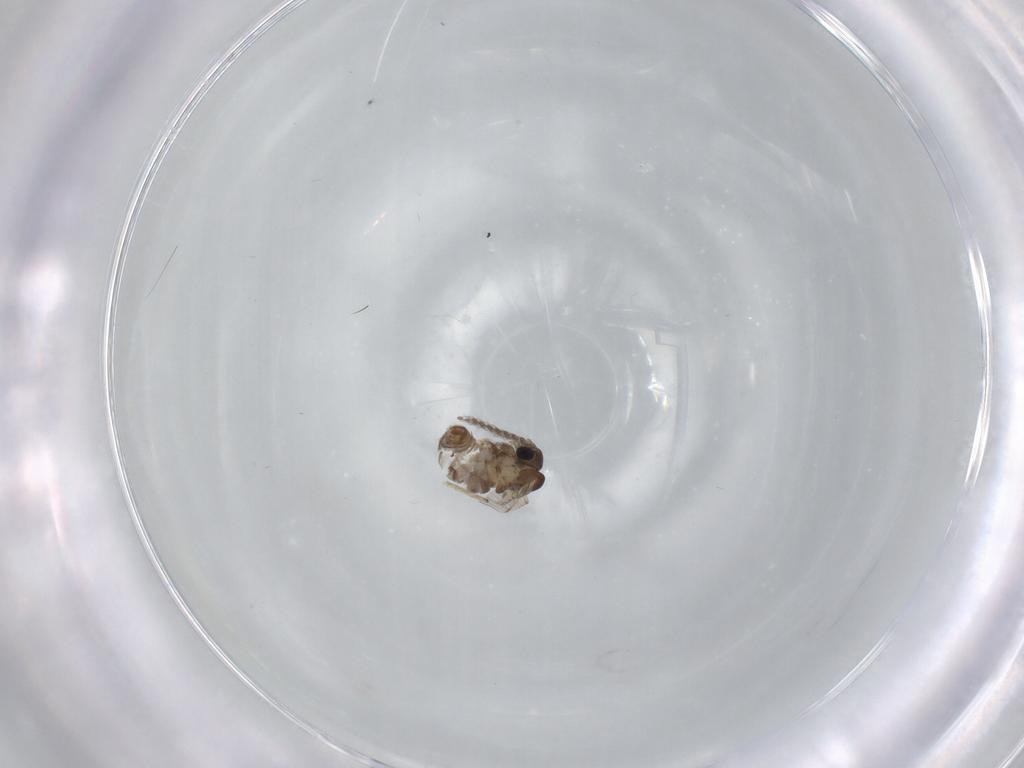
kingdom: Animalia
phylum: Arthropoda
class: Insecta
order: Diptera
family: Psychodidae
